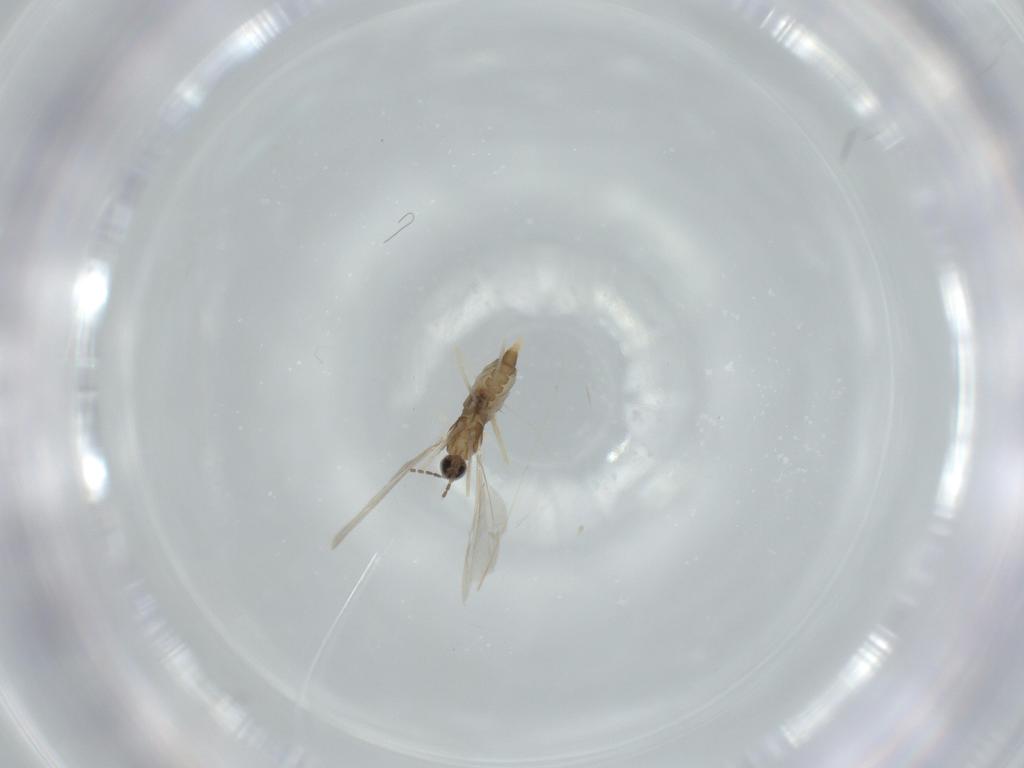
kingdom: Animalia
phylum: Arthropoda
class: Insecta
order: Diptera
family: Cecidomyiidae
